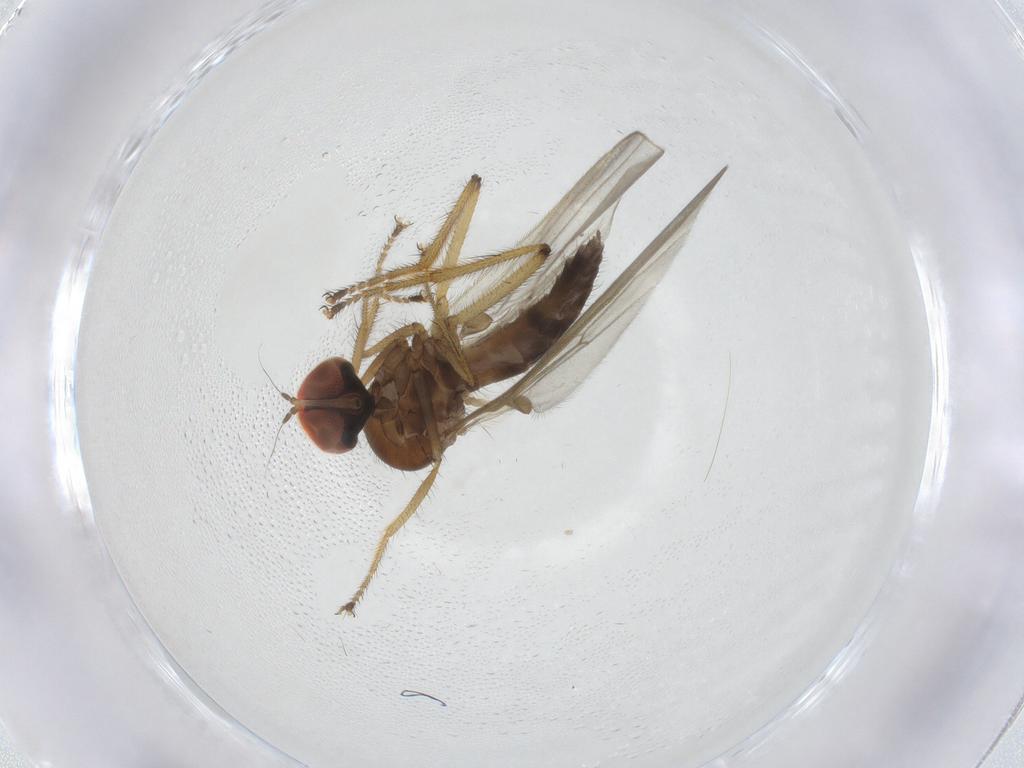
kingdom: Animalia
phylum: Arthropoda
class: Insecta
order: Diptera
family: Hybotidae
